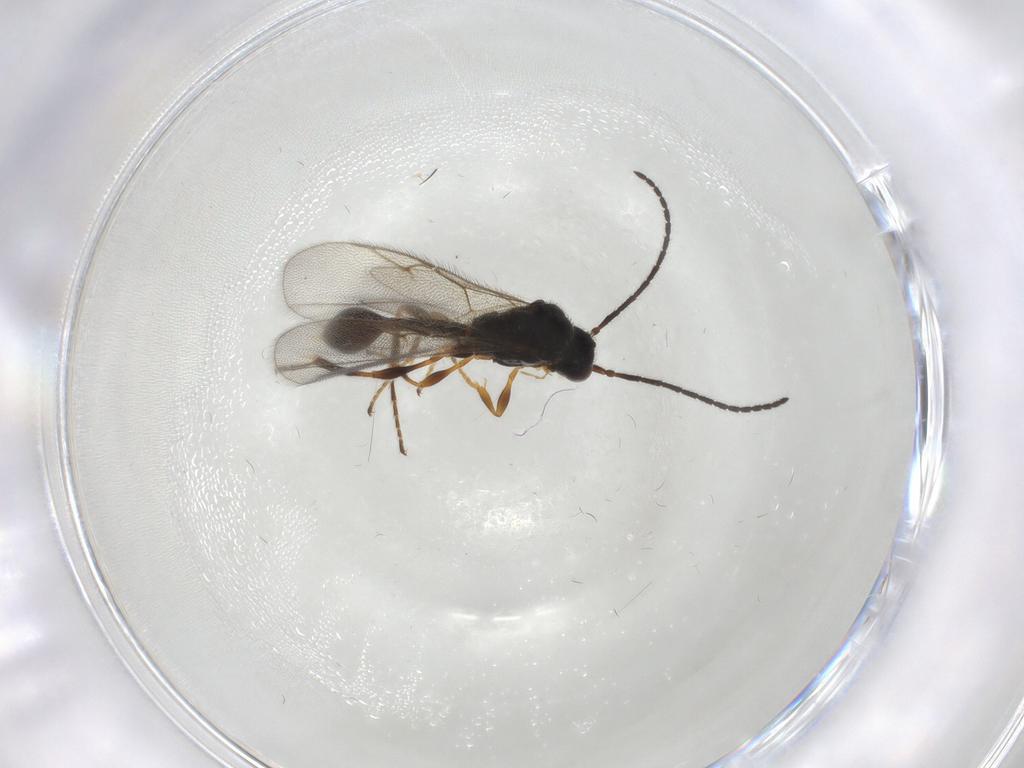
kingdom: Animalia
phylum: Arthropoda
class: Insecta
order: Hymenoptera
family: Diapriidae
